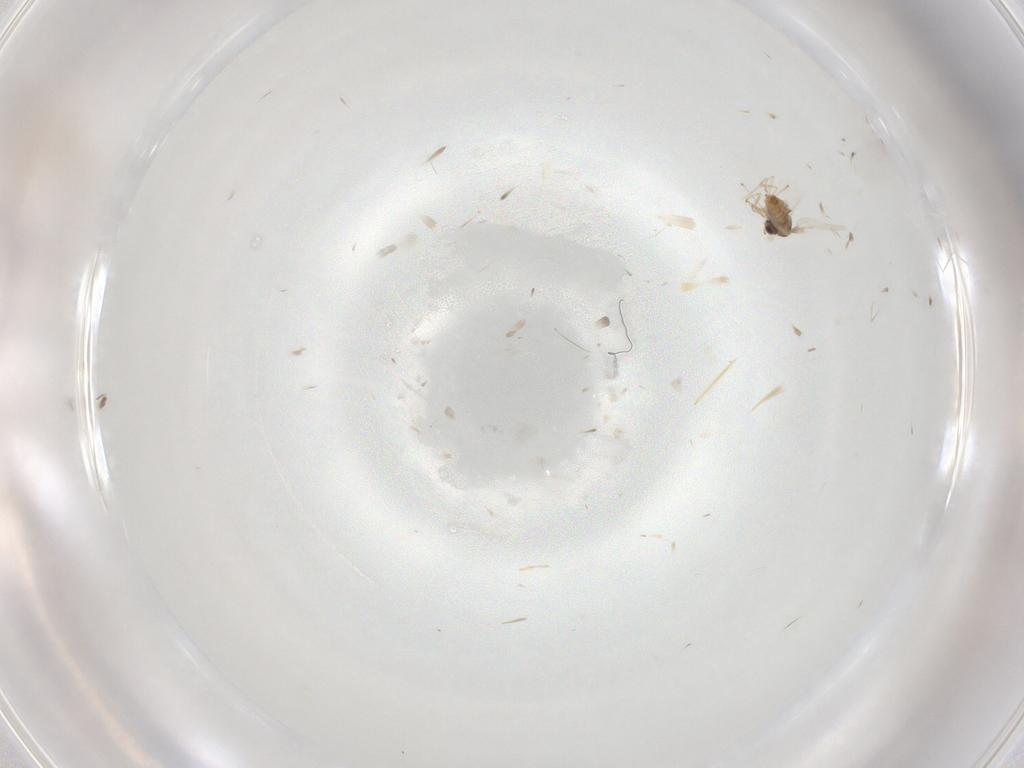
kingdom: Animalia
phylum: Arthropoda
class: Insecta
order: Diptera
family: Cecidomyiidae
